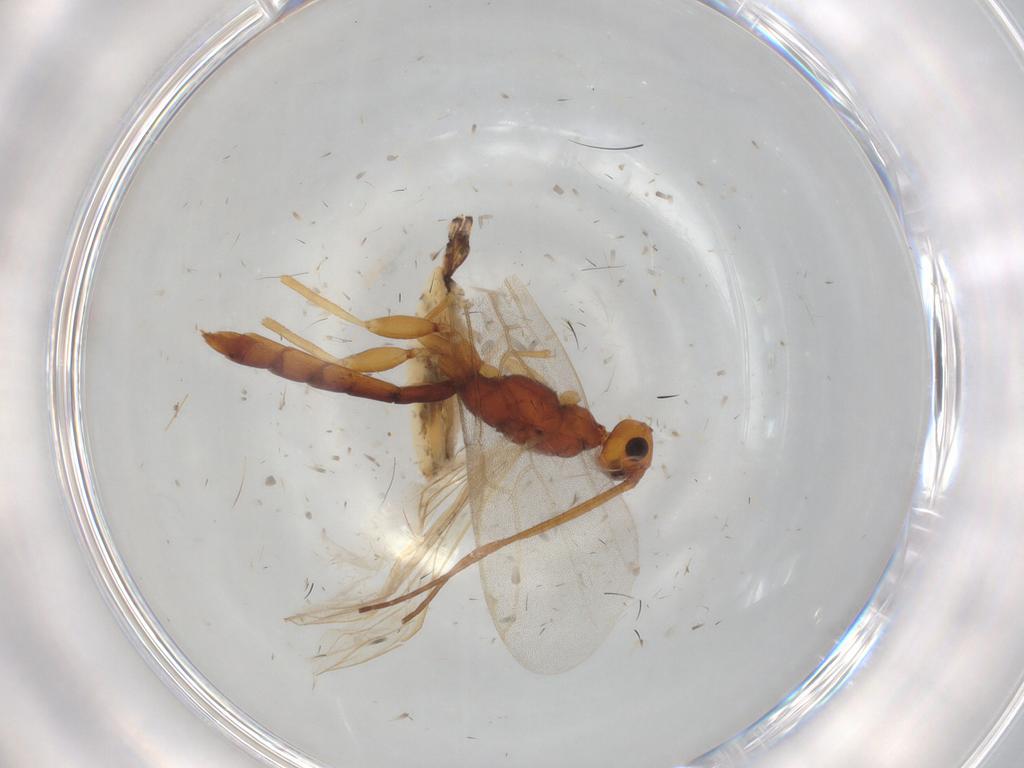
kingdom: Animalia
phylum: Arthropoda
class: Insecta
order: Hymenoptera
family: Braconidae
